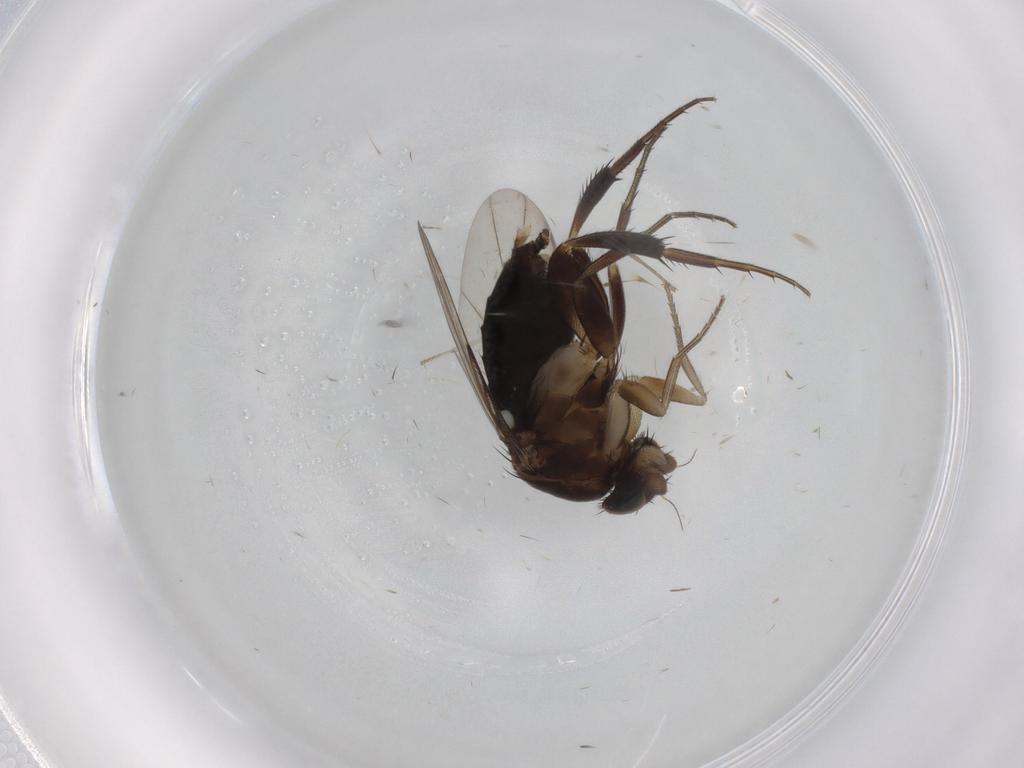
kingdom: Animalia
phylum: Arthropoda
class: Insecta
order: Diptera
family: Phoridae
